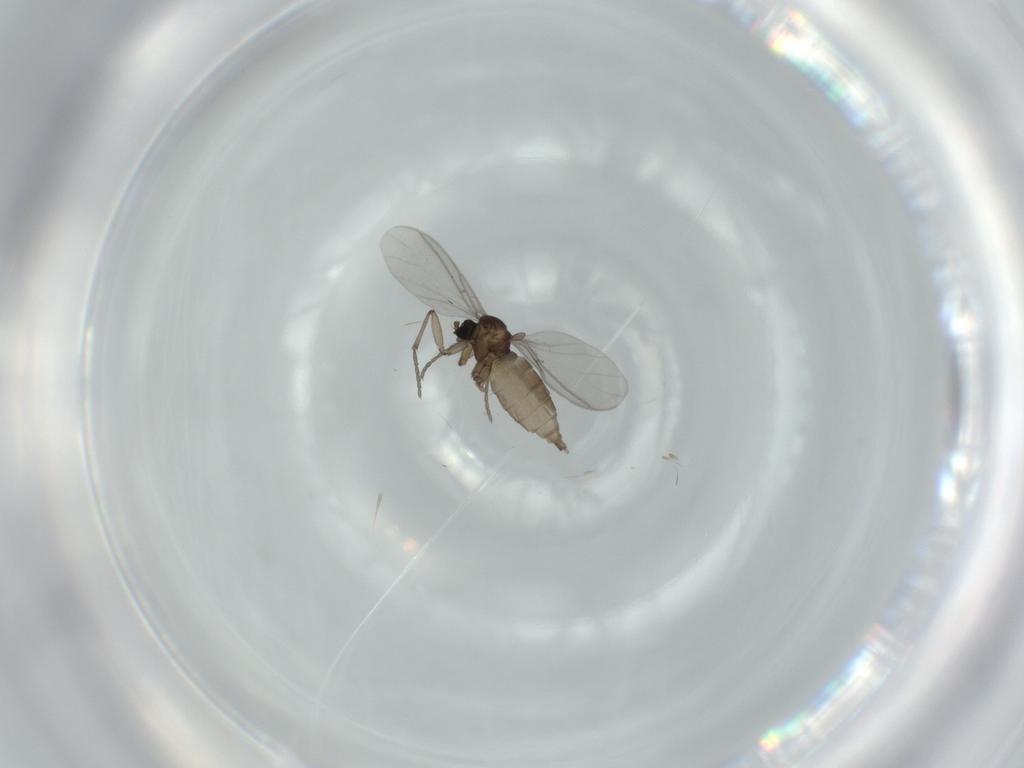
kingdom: Animalia
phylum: Arthropoda
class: Insecta
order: Diptera
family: Sciaridae
